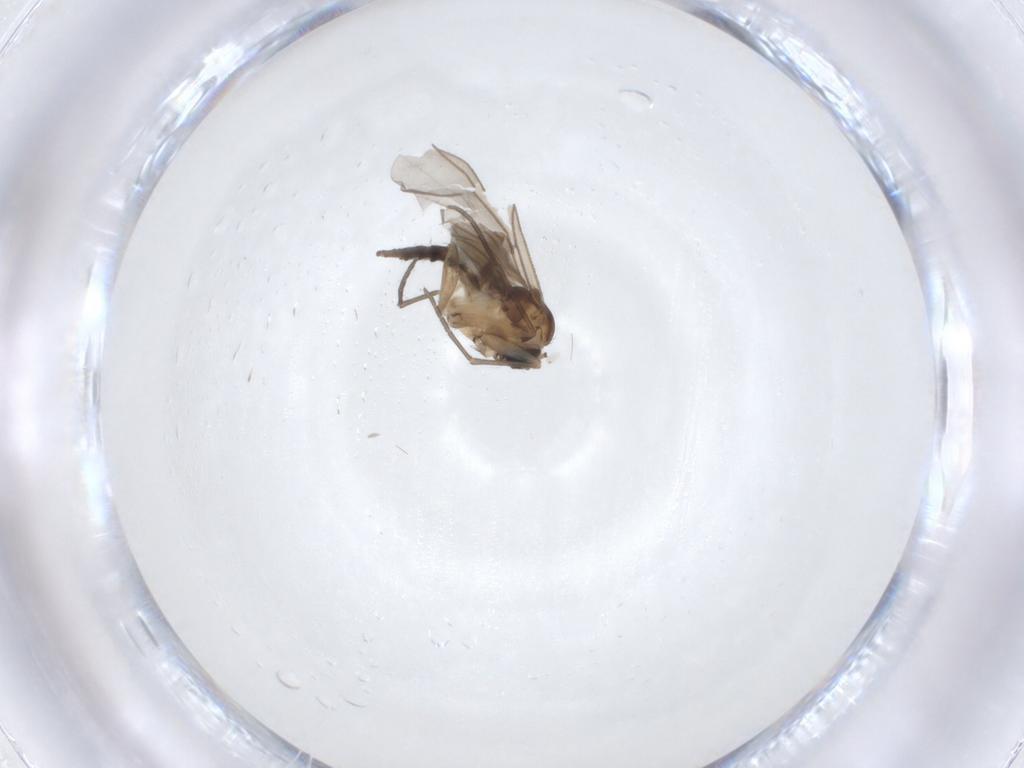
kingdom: Animalia
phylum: Arthropoda
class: Insecta
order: Diptera
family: Sciaridae
